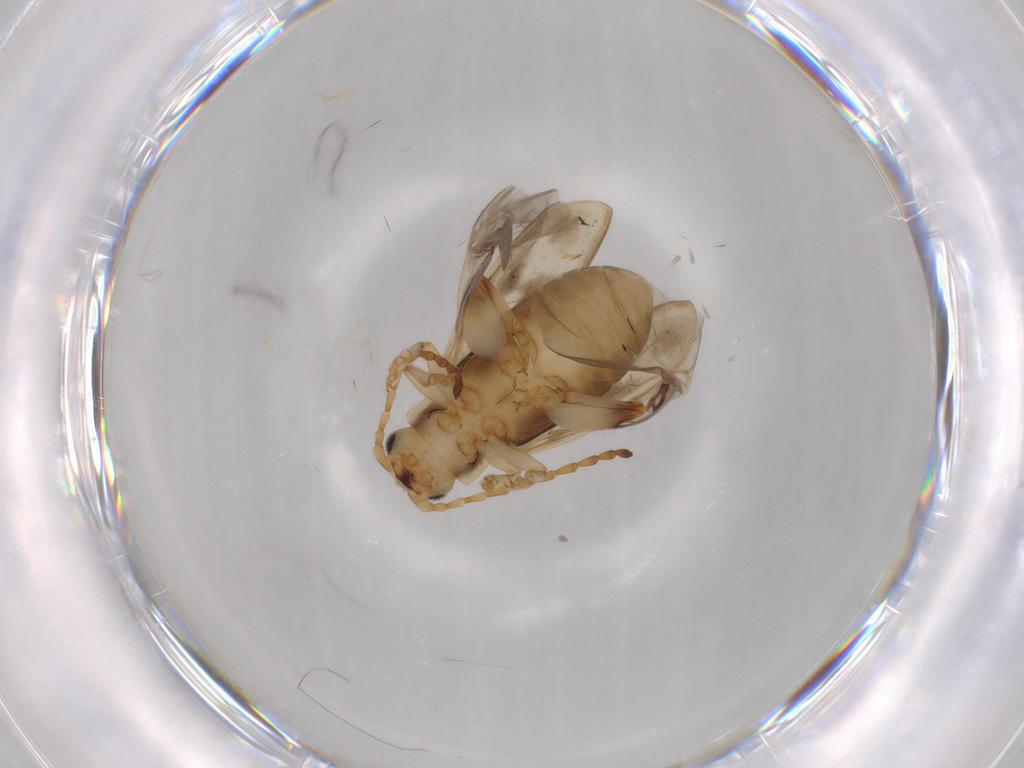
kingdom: Animalia
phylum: Arthropoda
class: Insecta
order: Coleoptera
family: Chrysomelidae
